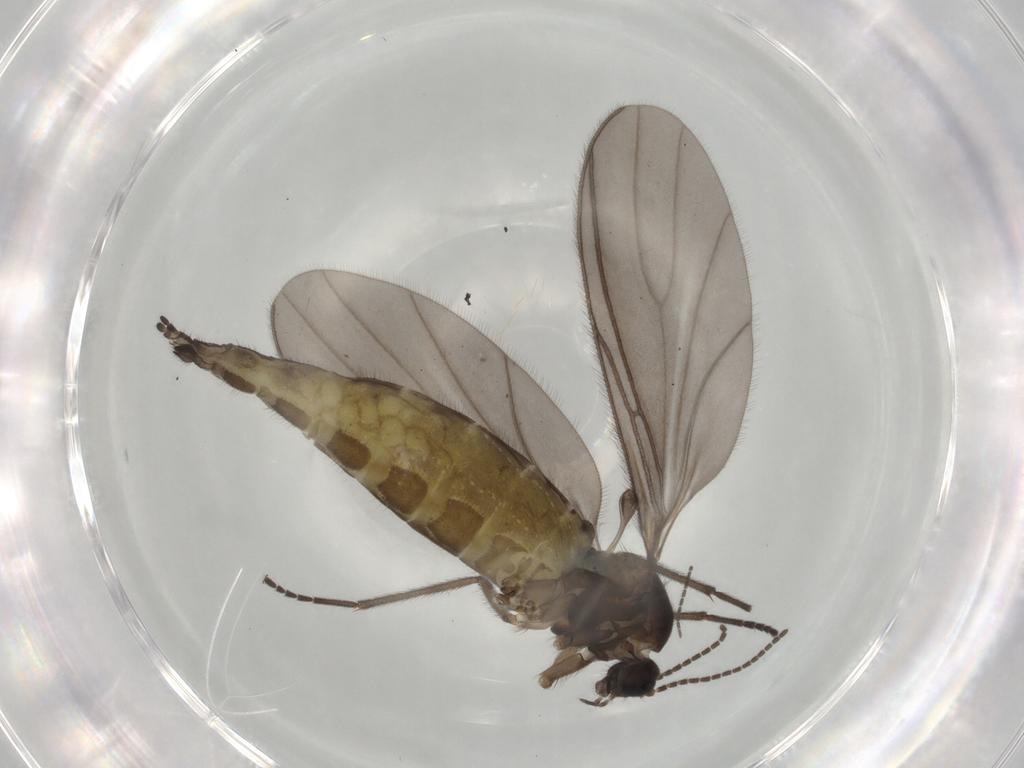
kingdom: Animalia
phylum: Arthropoda
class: Insecta
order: Diptera
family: Sciaridae
